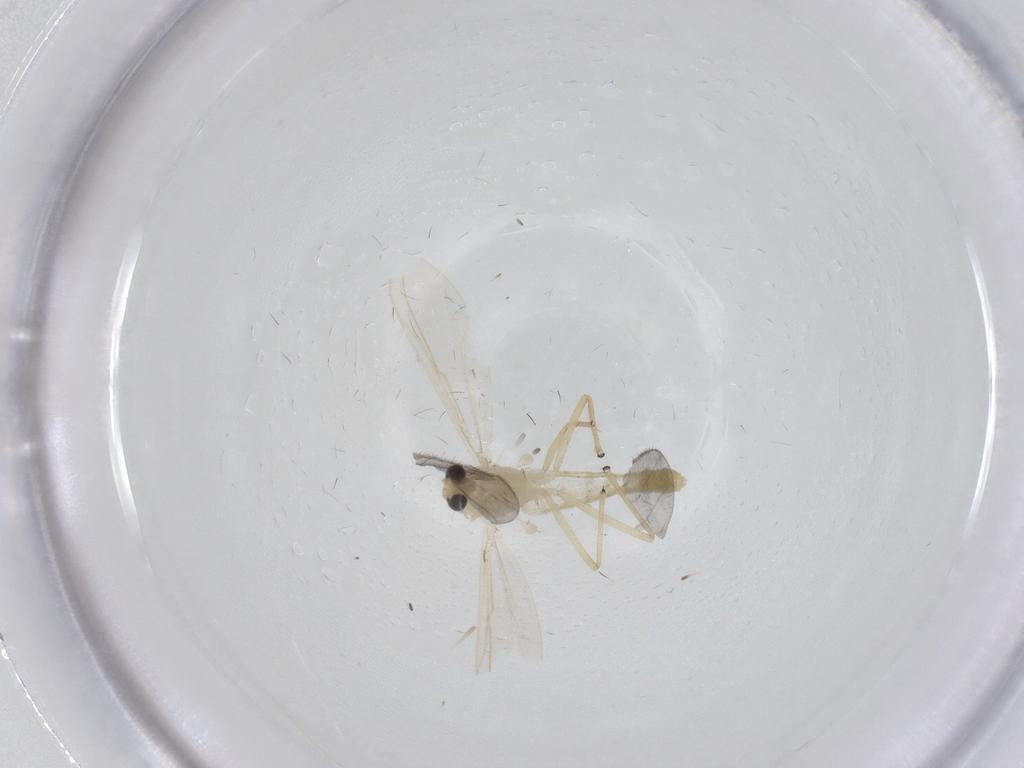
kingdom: Animalia
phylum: Arthropoda
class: Insecta
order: Diptera
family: Chironomidae
